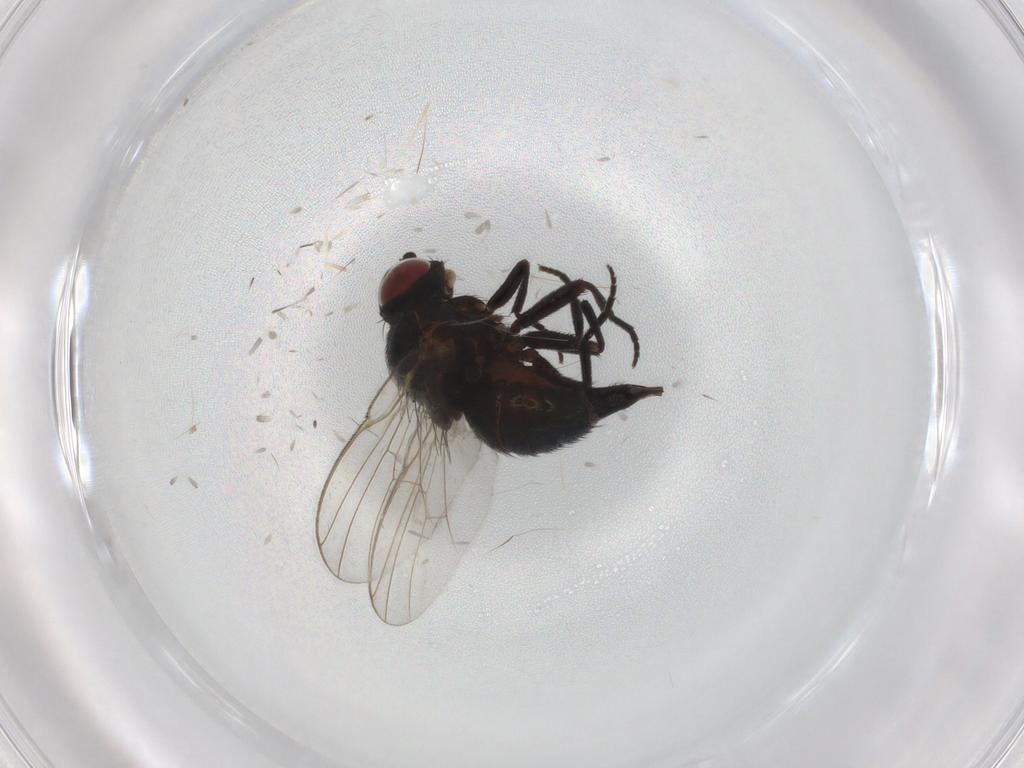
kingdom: Animalia
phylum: Arthropoda
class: Insecta
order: Diptera
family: Agromyzidae
